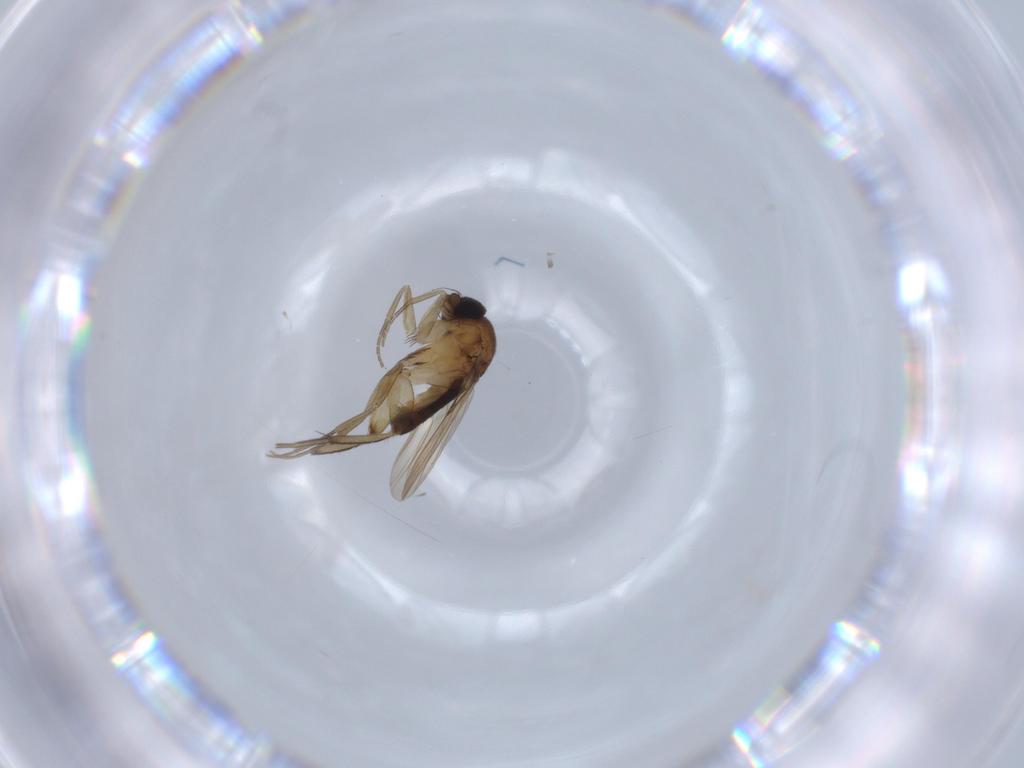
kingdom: Animalia
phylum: Arthropoda
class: Insecta
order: Diptera
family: Phoridae
